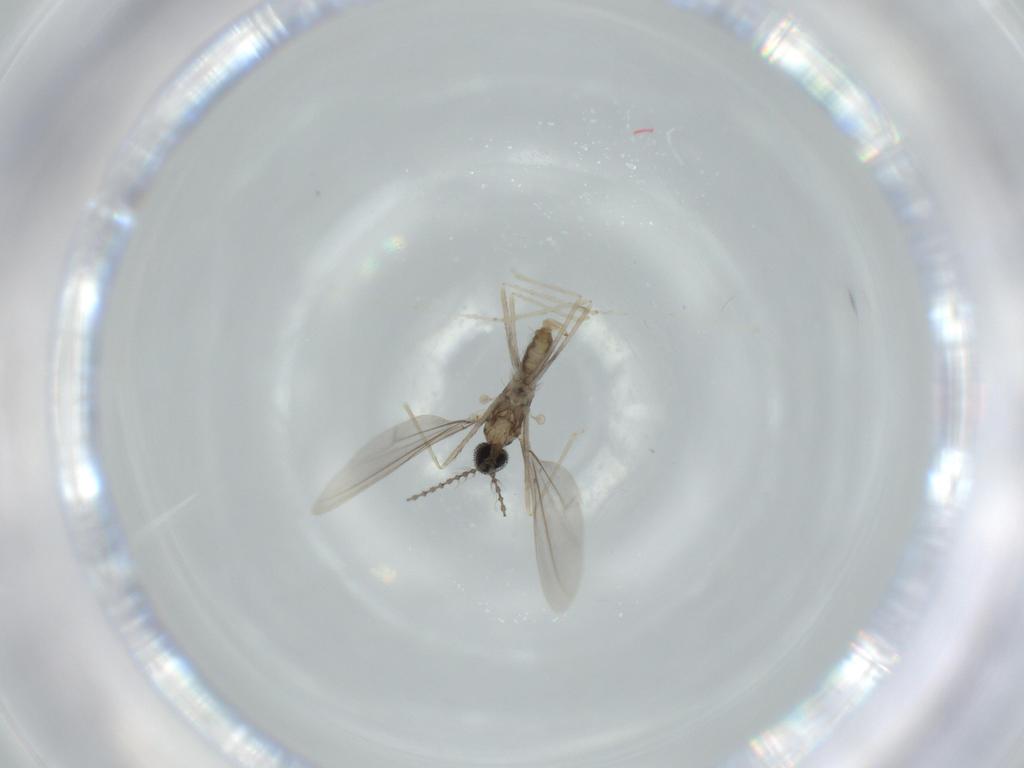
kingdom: Animalia
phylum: Arthropoda
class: Insecta
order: Diptera
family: Cecidomyiidae
